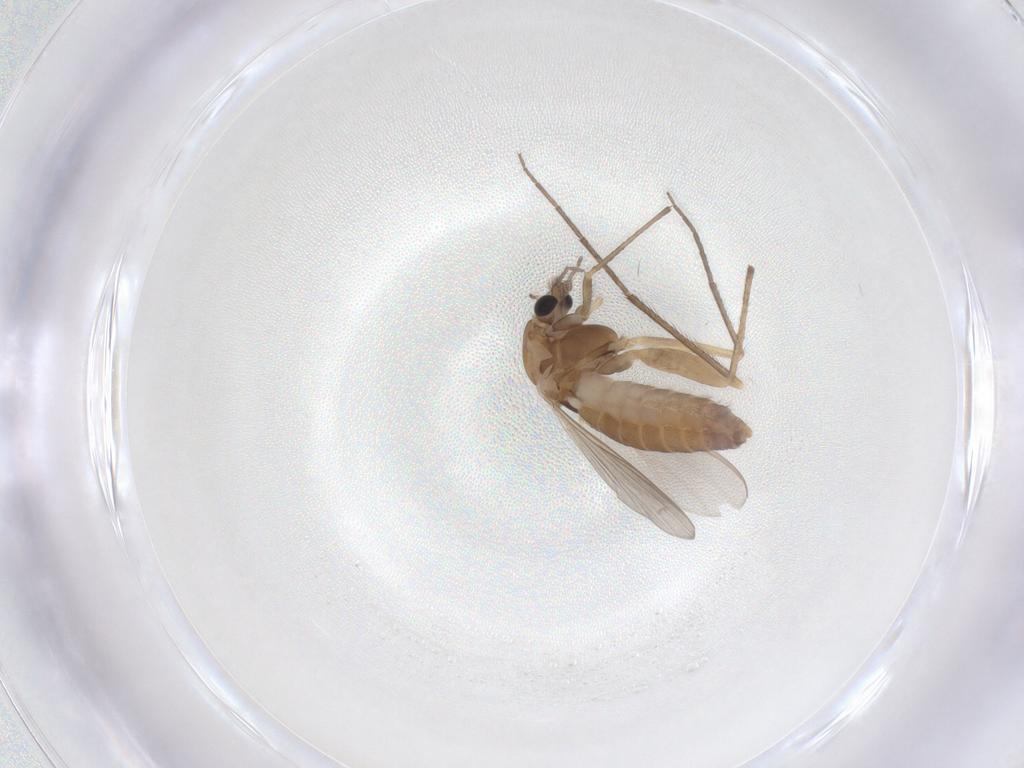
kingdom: Animalia
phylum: Arthropoda
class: Insecta
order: Diptera
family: Chironomidae
